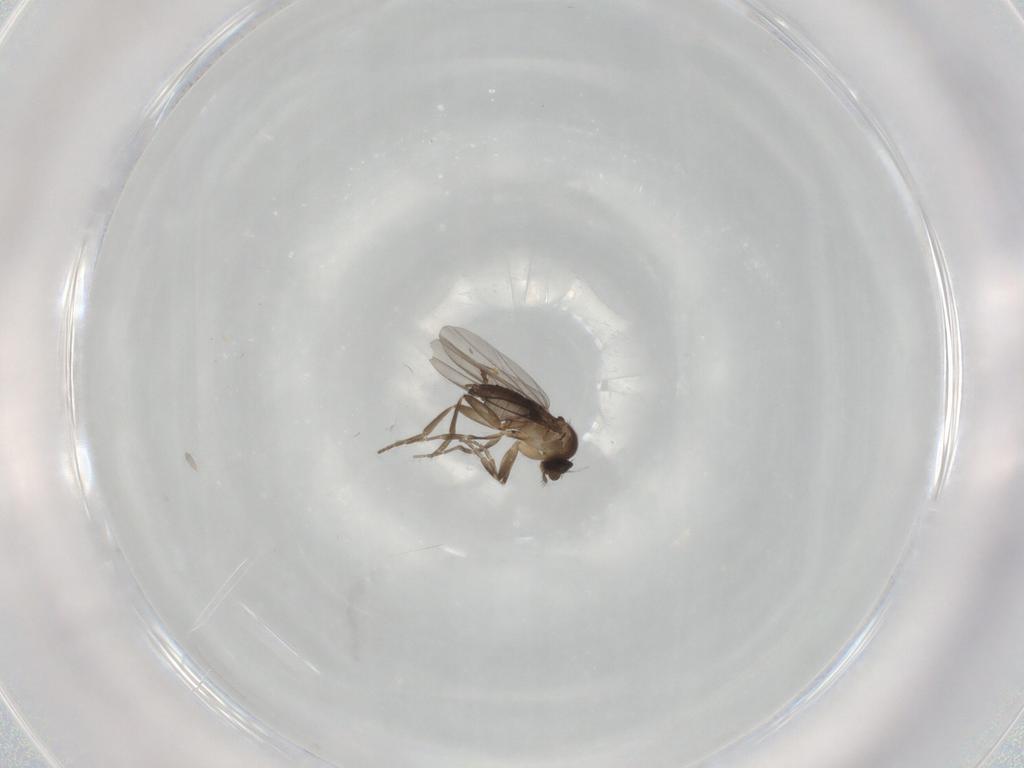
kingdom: Animalia
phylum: Arthropoda
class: Insecta
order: Diptera
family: Phoridae
